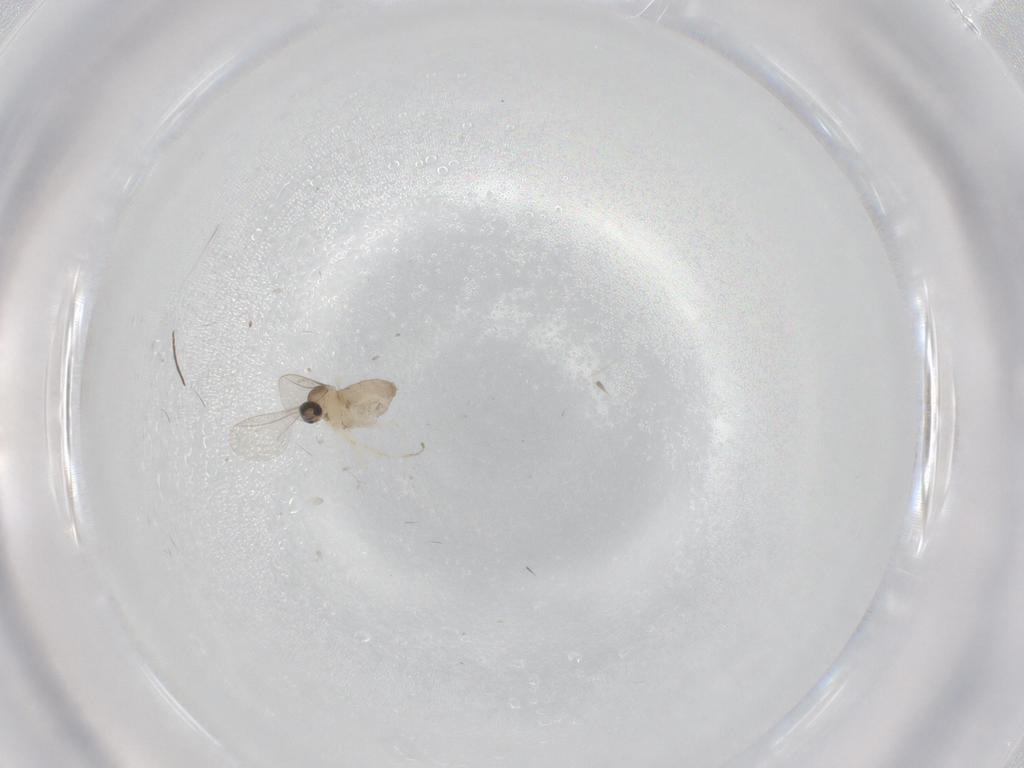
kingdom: Animalia
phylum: Arthropoda
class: Insecta
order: Diptera
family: Cecidomyiidae
